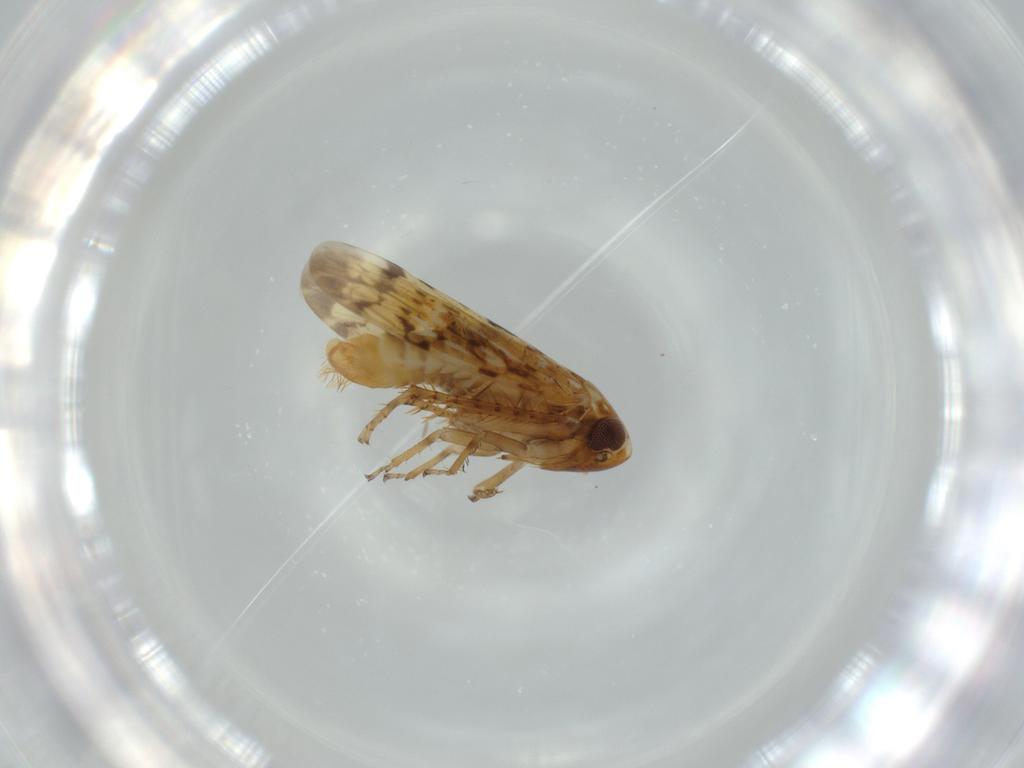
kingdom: Animalia
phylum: Arthropoda
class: Insecta
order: Hemiptera
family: Cicadellidae
